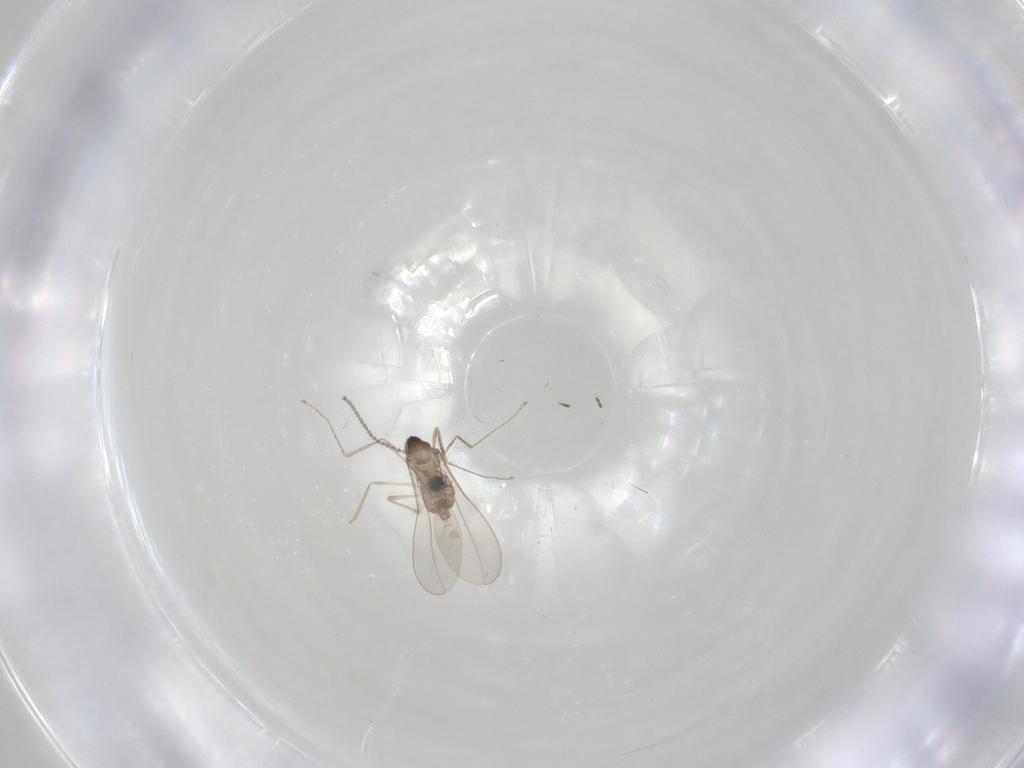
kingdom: Animalia
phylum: Arthropoda
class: Insecta
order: Diptera
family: Cecidomyiidae
